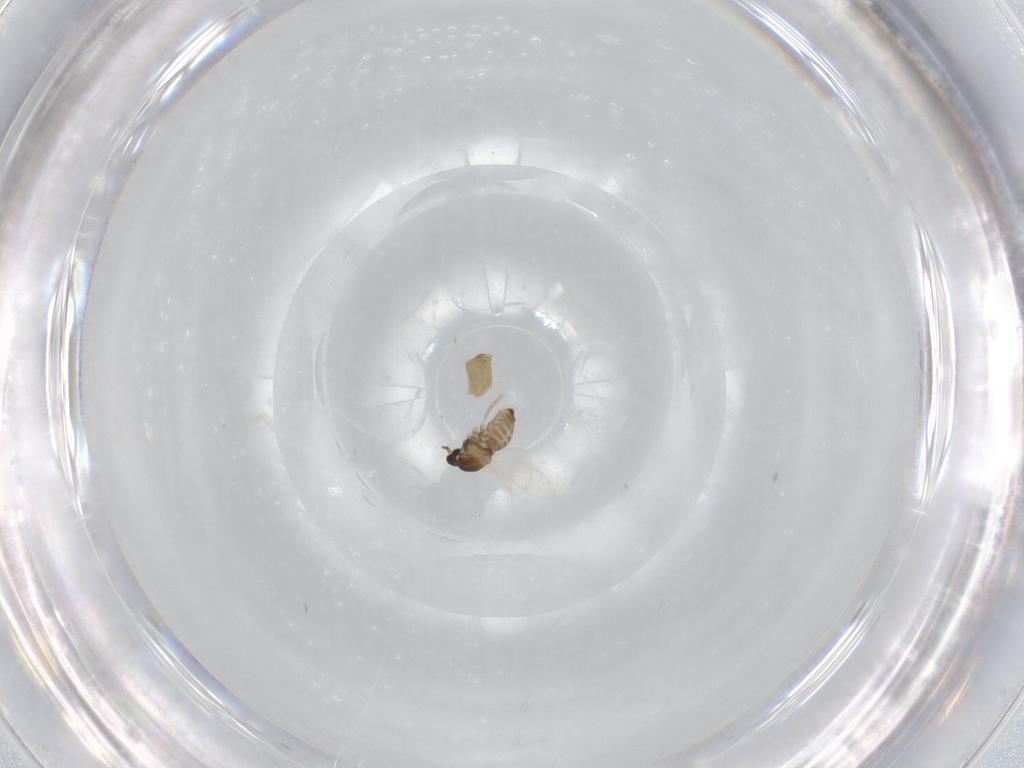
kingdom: Animalia
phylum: Arthropoda
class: Insecta
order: Diptera
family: Cecidomyiidae
